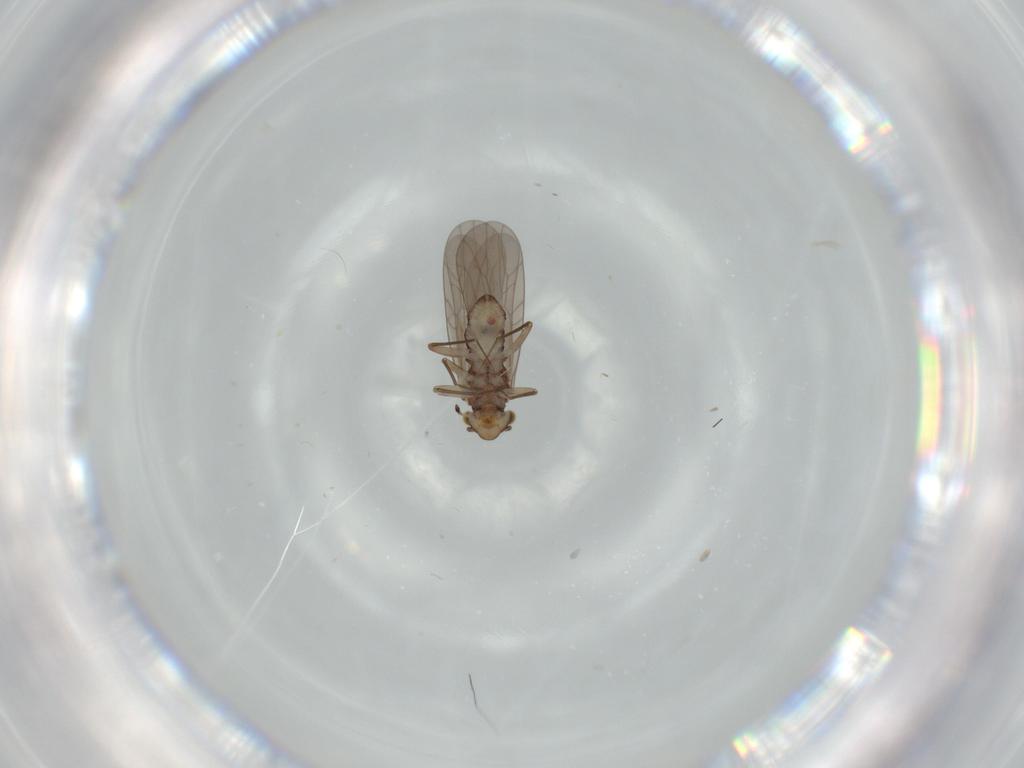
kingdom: Animalia
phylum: Arthropoda
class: Insecta
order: Psocodea
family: Lepidopsocidae
